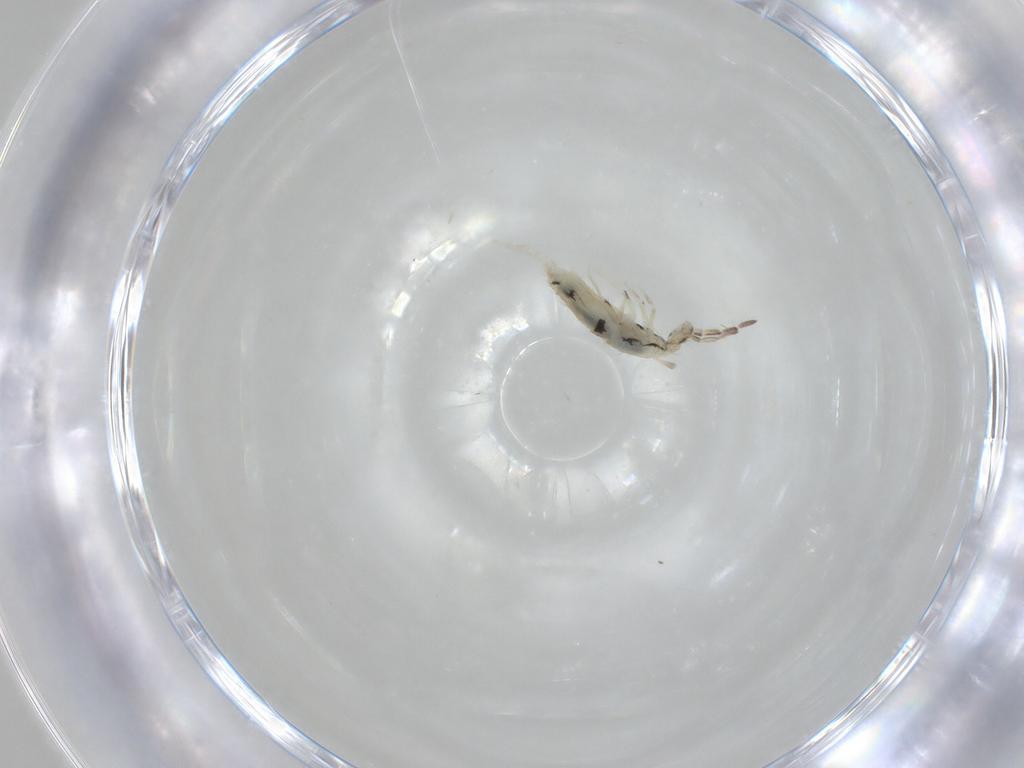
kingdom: Animalia
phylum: Arthropoda
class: Collembola
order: Entomobryomorpha
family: Entomobryidae
